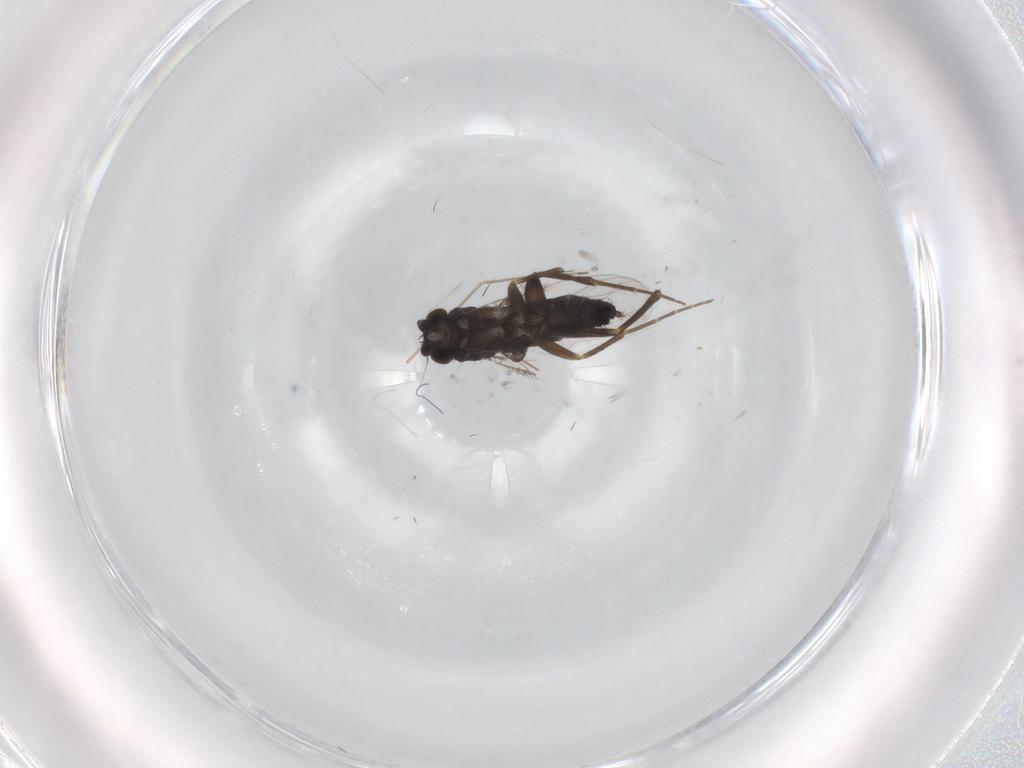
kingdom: Animalia
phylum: Arthropoda
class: Insecta
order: Diptera
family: Phoridae
